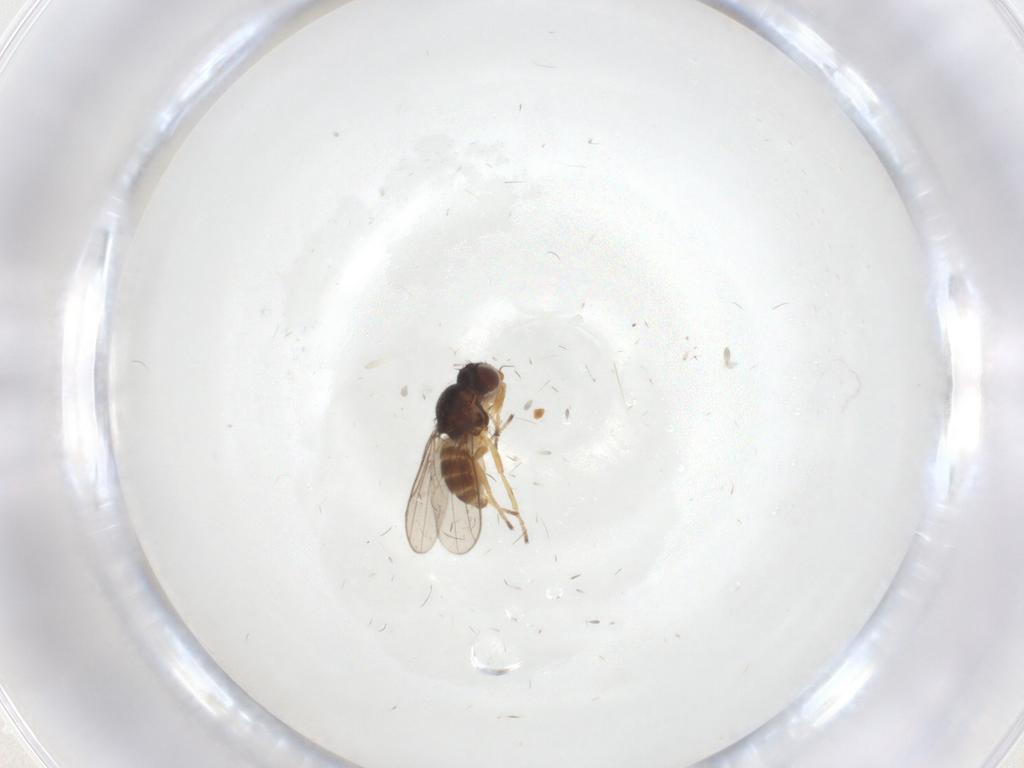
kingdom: Animalia
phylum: Arthropoda
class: Insecta
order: Diptera
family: Chloropidae
